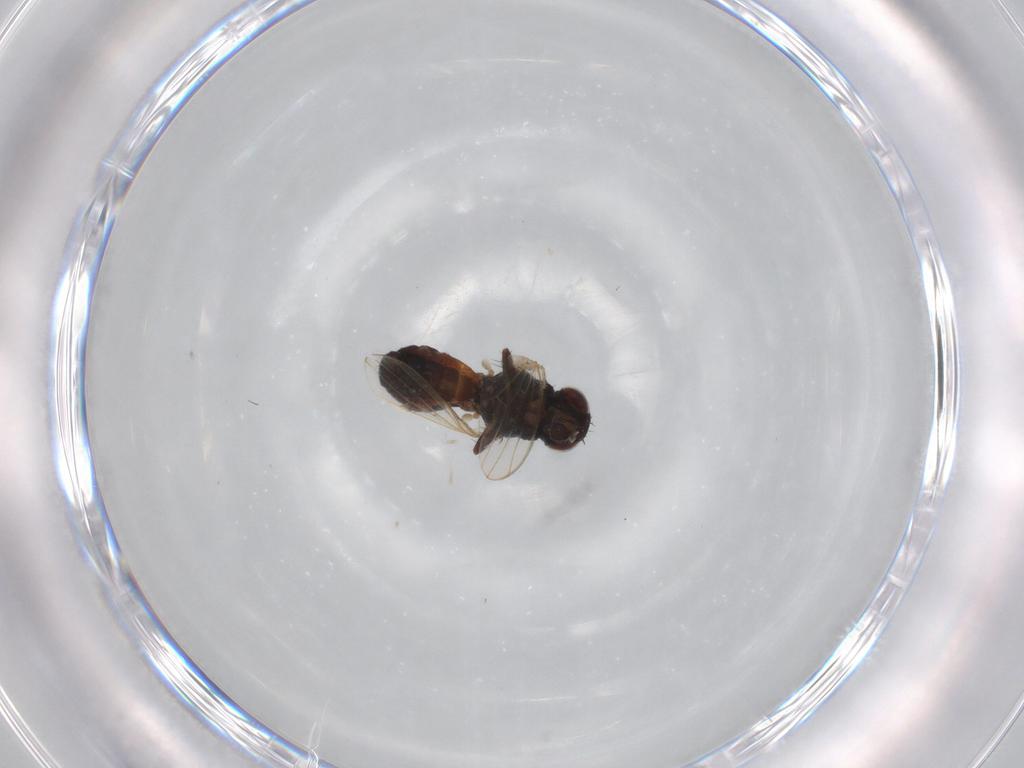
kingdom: Animalia
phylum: Arthropoda
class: Insecta
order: Diptera
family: Carnidae
